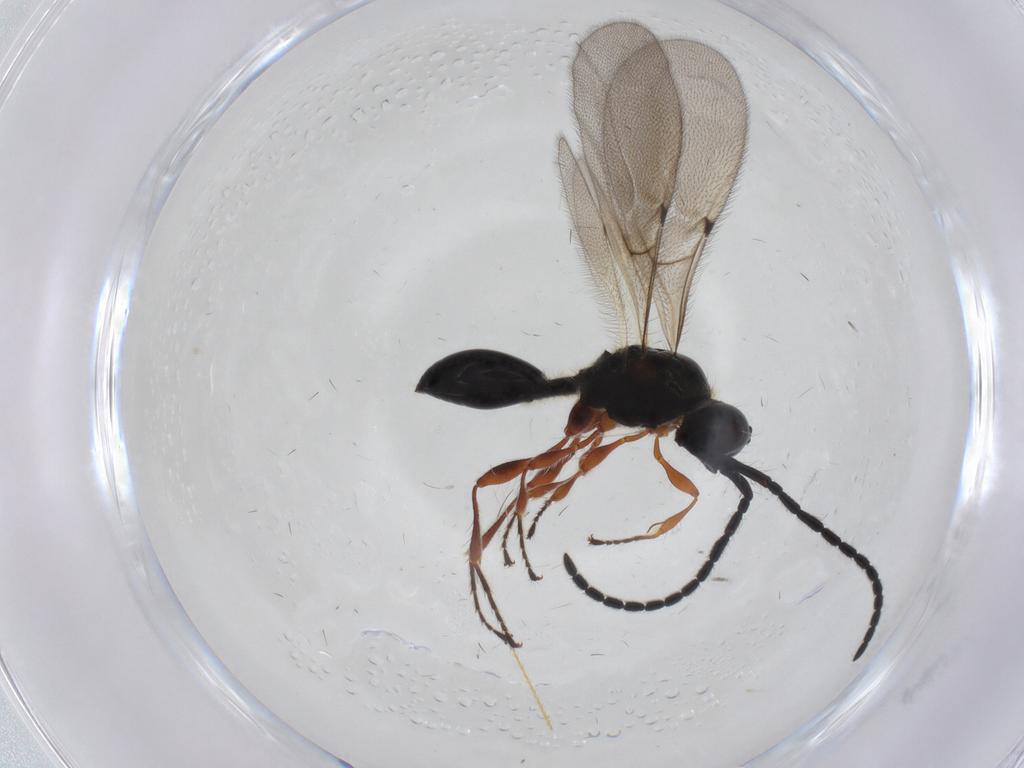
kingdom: Animalia
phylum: Arthropoda
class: Insecta
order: Hymenoptera
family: Diapriidae
